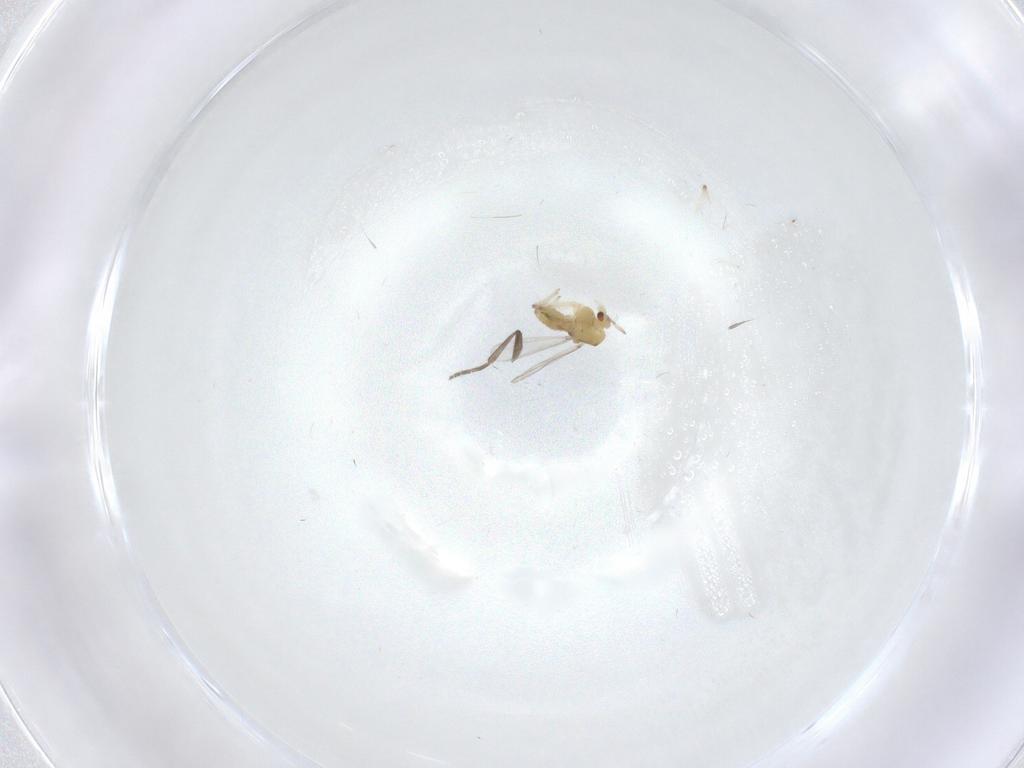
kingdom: Animalia
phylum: Arthropoda
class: Insecta
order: Diptera
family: Chironomidae
